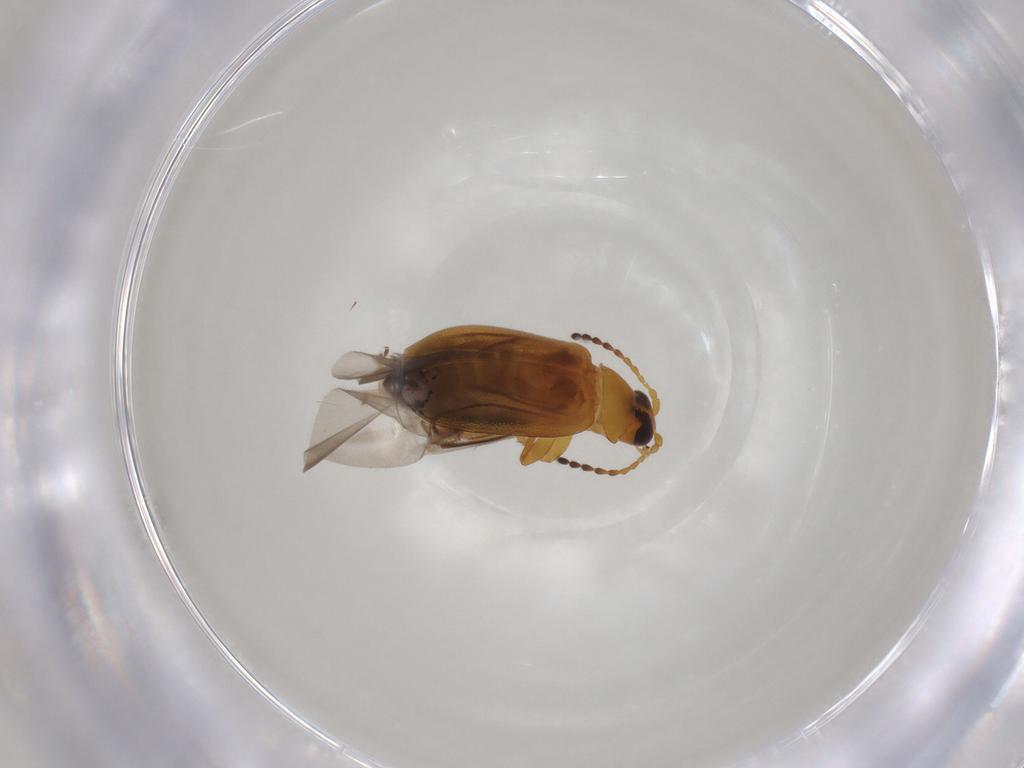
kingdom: Animalia
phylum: Arthropoda
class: Insecta
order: Coleoptera
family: Chrysomelidae
